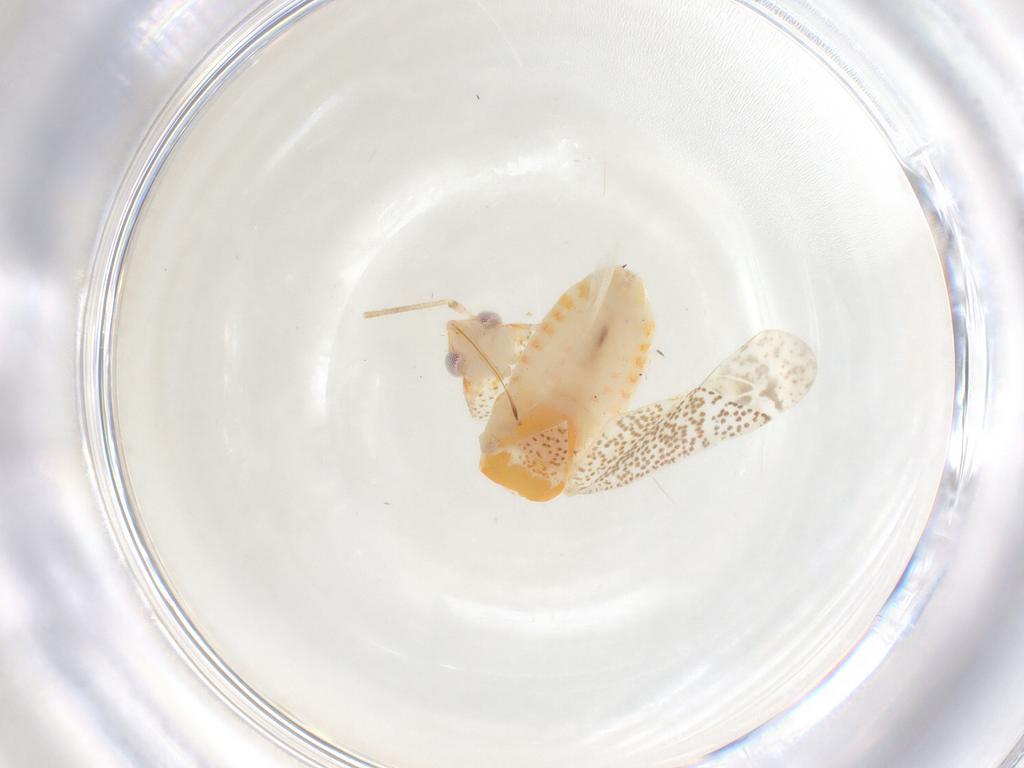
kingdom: Animalia
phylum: Arthropoda
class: Insecta
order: Hemiptera
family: Miridae
